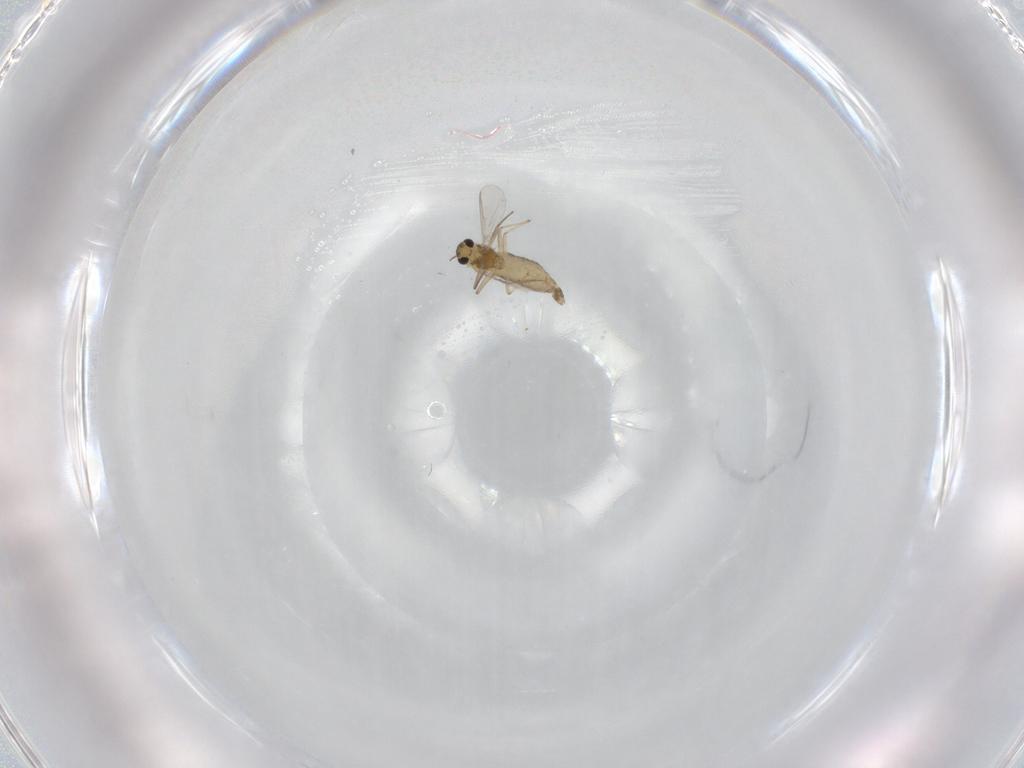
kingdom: Animalia
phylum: Arthropoda
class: Insecta
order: Diptera
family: Chironomidae
